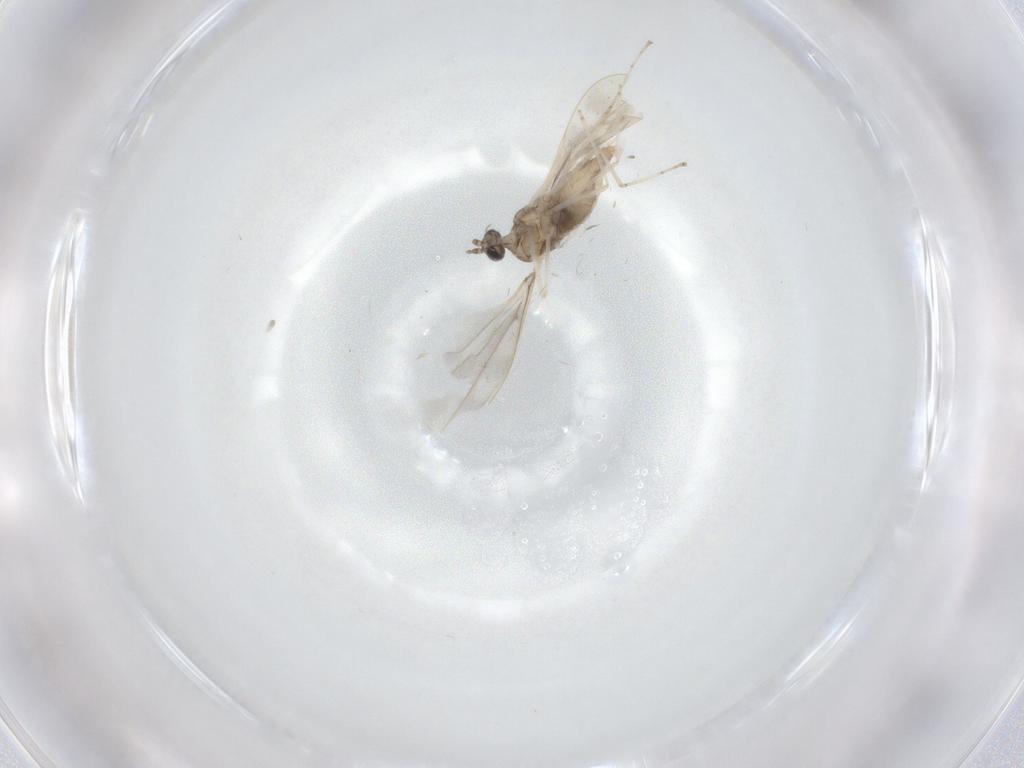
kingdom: Animalia
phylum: Arthropoda
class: Insecta
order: Diptera
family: Cecidomyiidae
